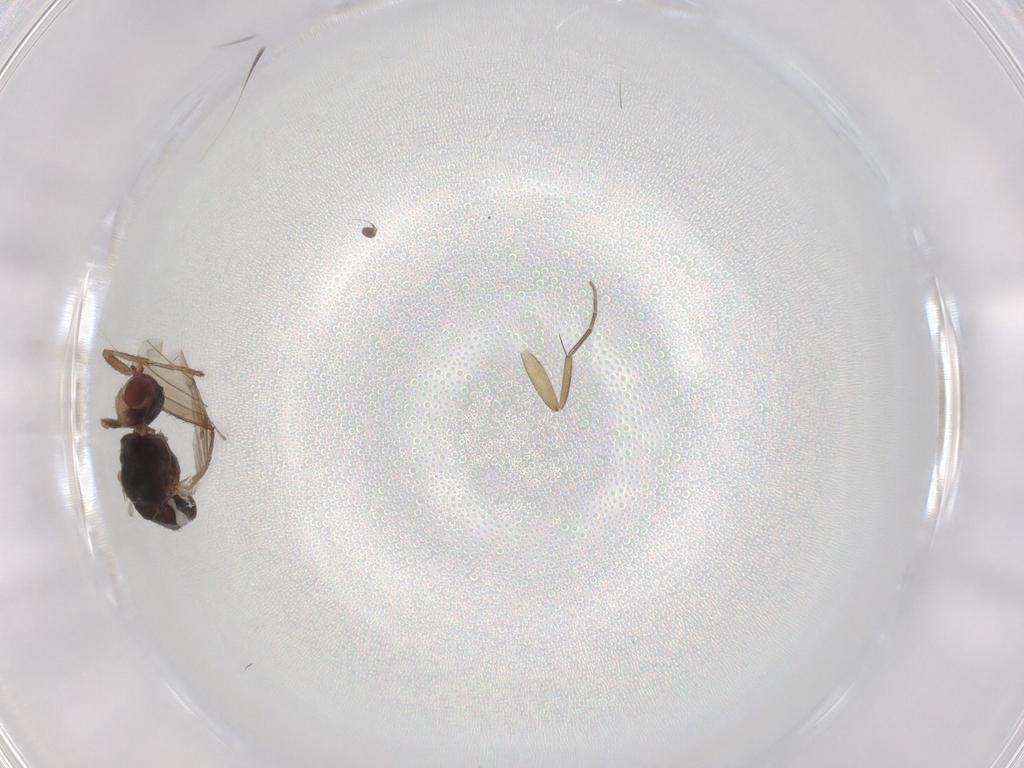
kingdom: Animalia
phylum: Arthropoda
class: Insecta
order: Diptera
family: Heleomyzidae
